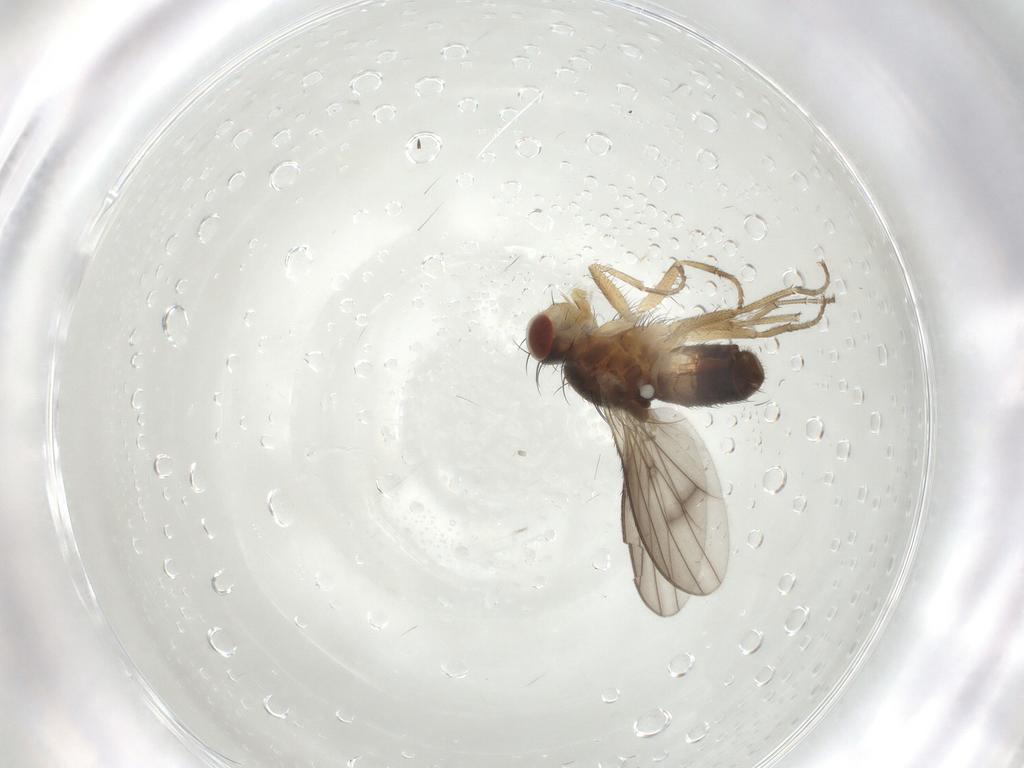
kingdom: Animalia
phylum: Arthropoda
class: Insecta
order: Diptera
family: Heleomyzidae
